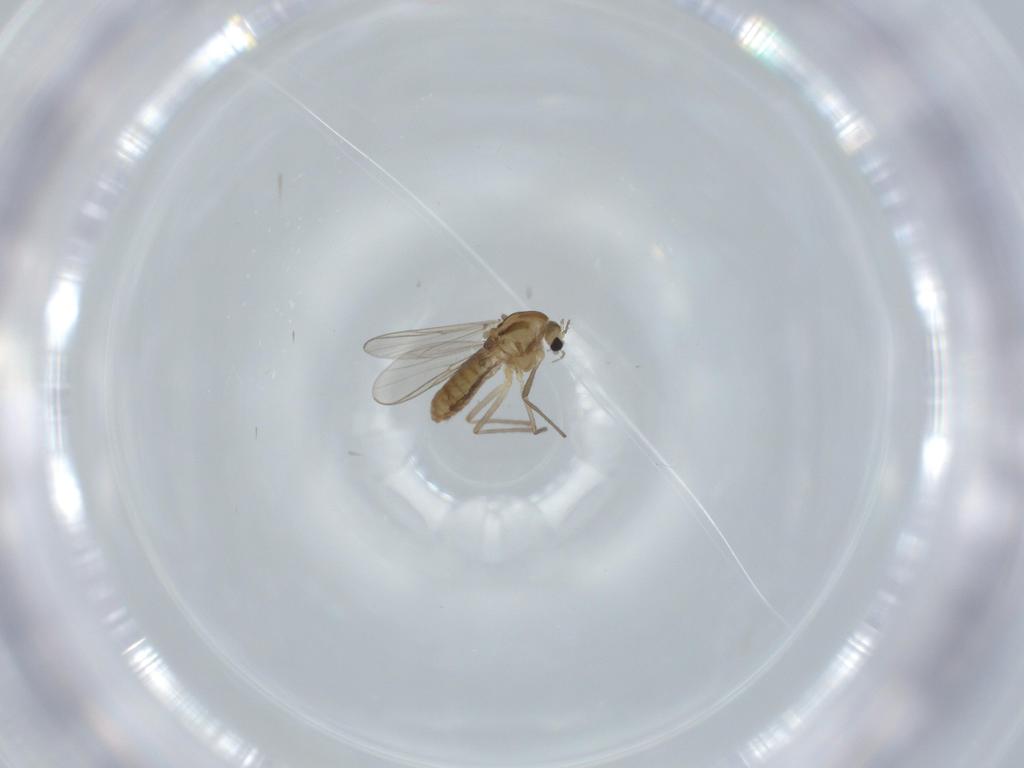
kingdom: Animalia
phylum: Arthropoda
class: Insecta
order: Diptera
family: Chironomidae
